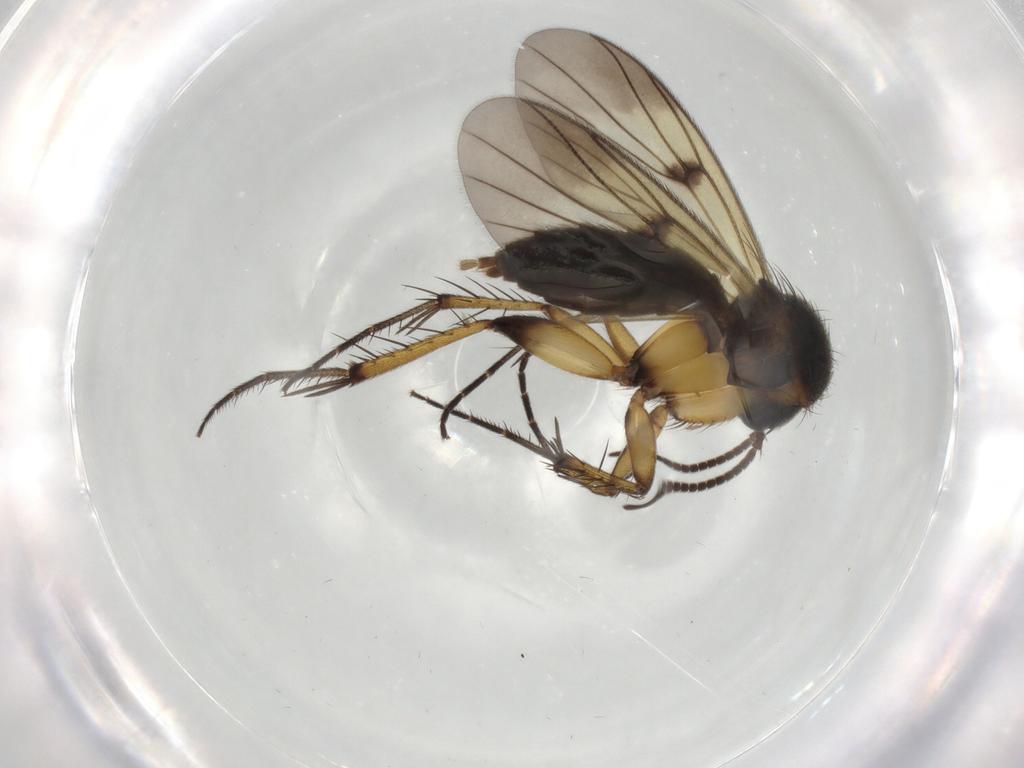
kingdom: Animalia
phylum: Arthropoda
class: Insecta
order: Diptera
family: Mycetophilidae
